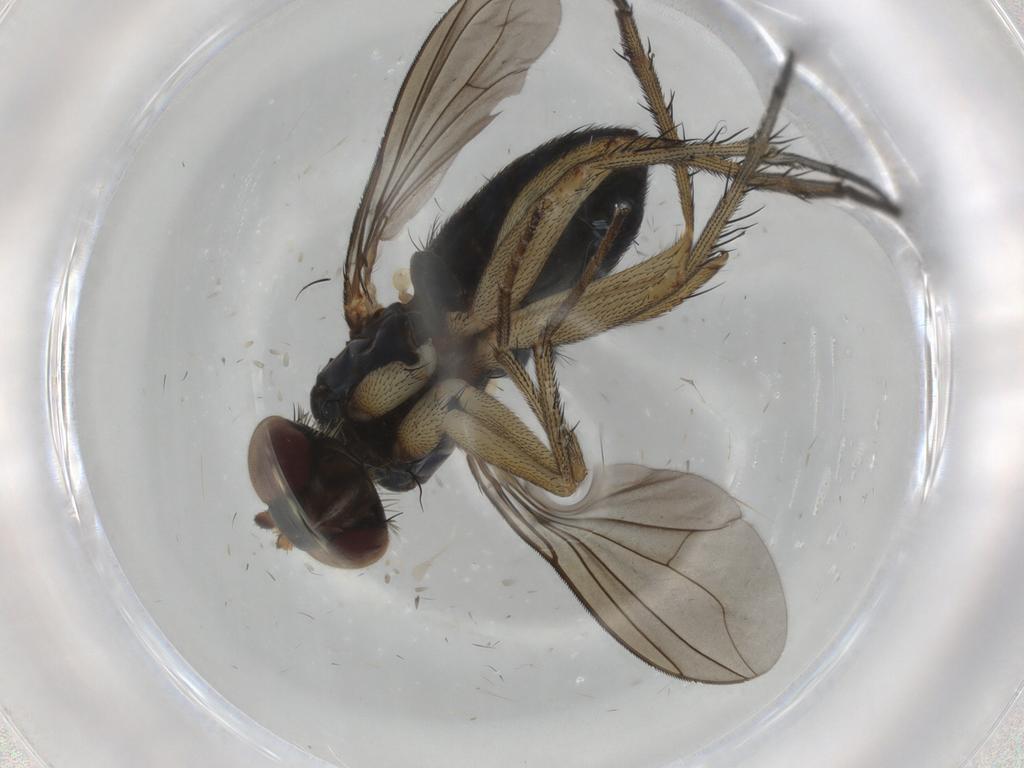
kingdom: Animalia
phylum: Arthropoda
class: Insecta
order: Diptera
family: Dolichopodidae
